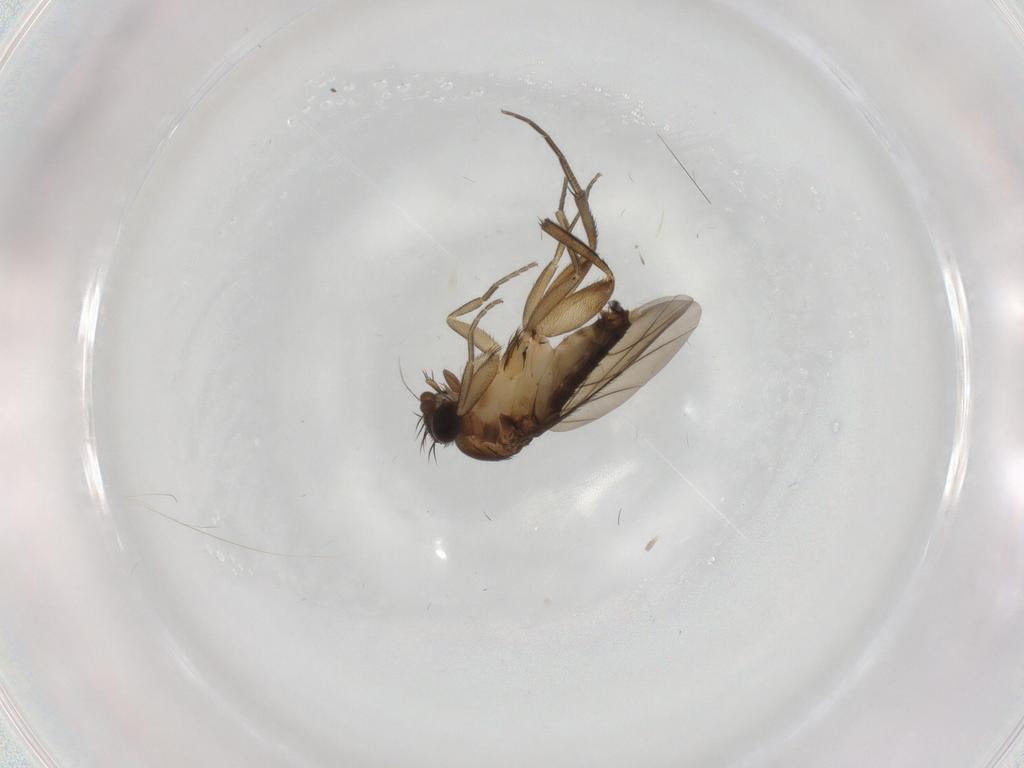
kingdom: Animalia
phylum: Arthropoda
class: Insecta
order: Diptera
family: Phoridae
